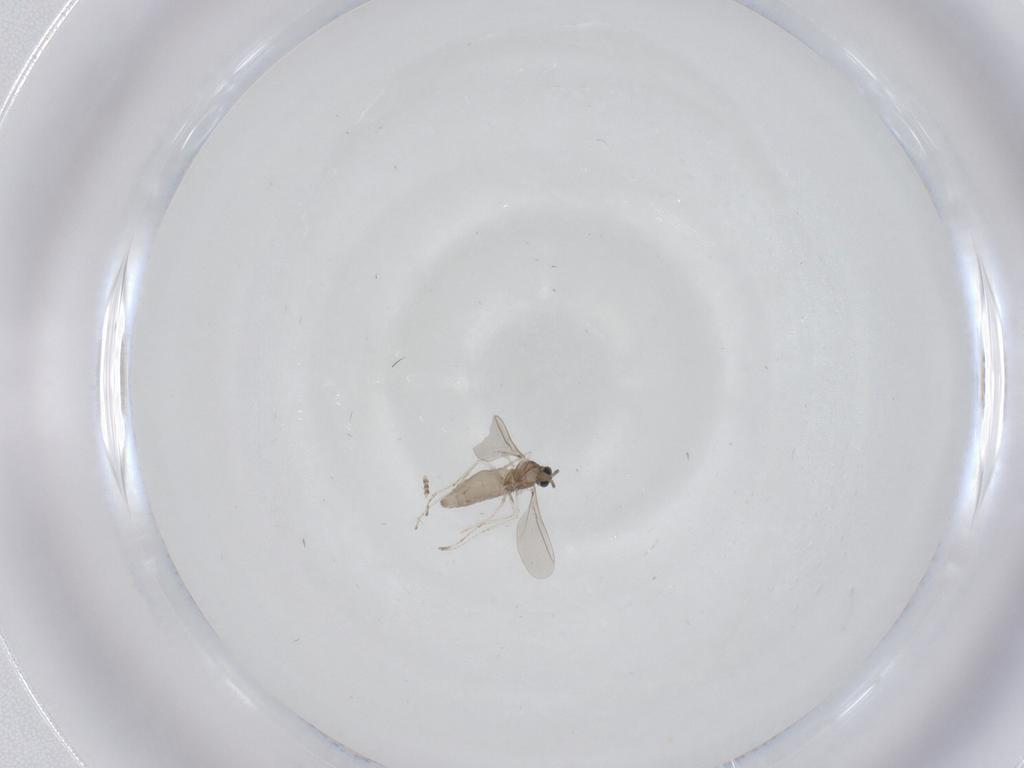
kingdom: Animalia
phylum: Arthropoda
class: Insecta
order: Diptera
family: Cecidomyiidae
